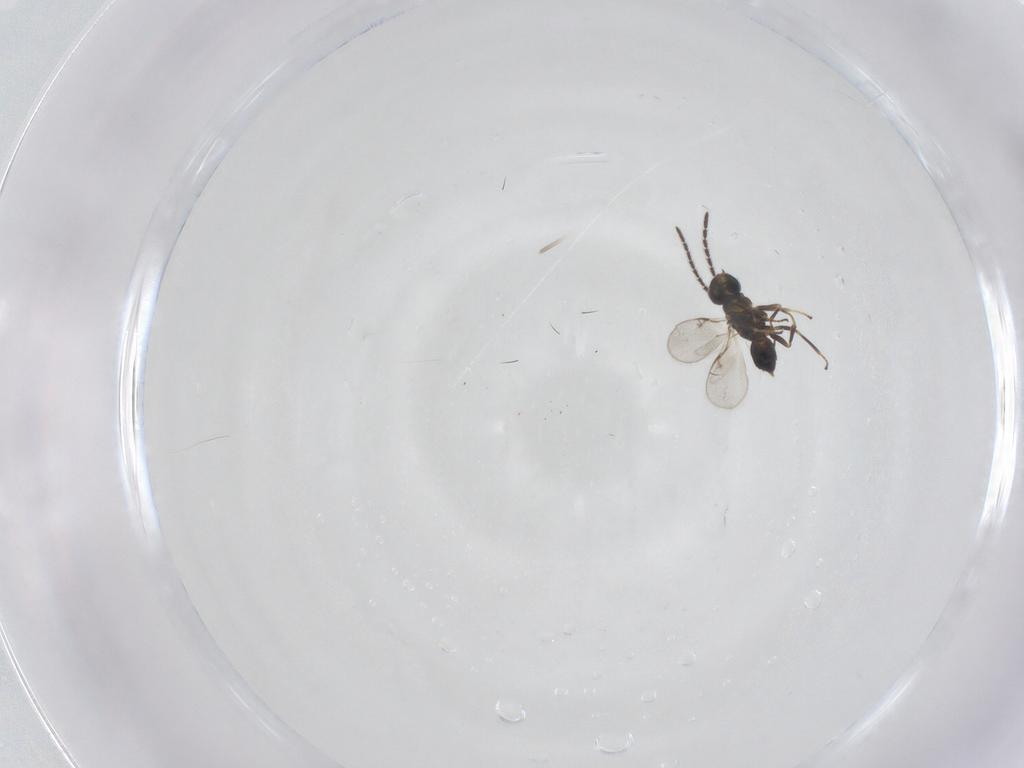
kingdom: Animalia
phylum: Arthropoda
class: Insecta
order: Hymenoptera
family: Encyrtidae
